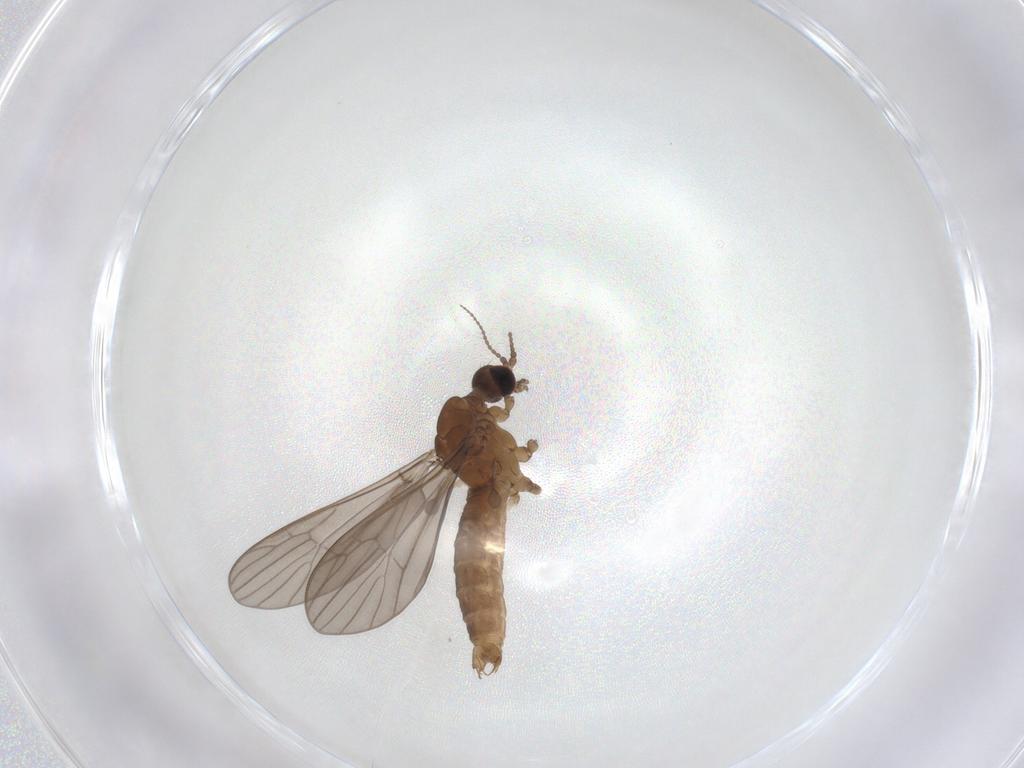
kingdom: Animalia
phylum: Arthropoda
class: Insecta
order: Diptera
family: Limoniidae
